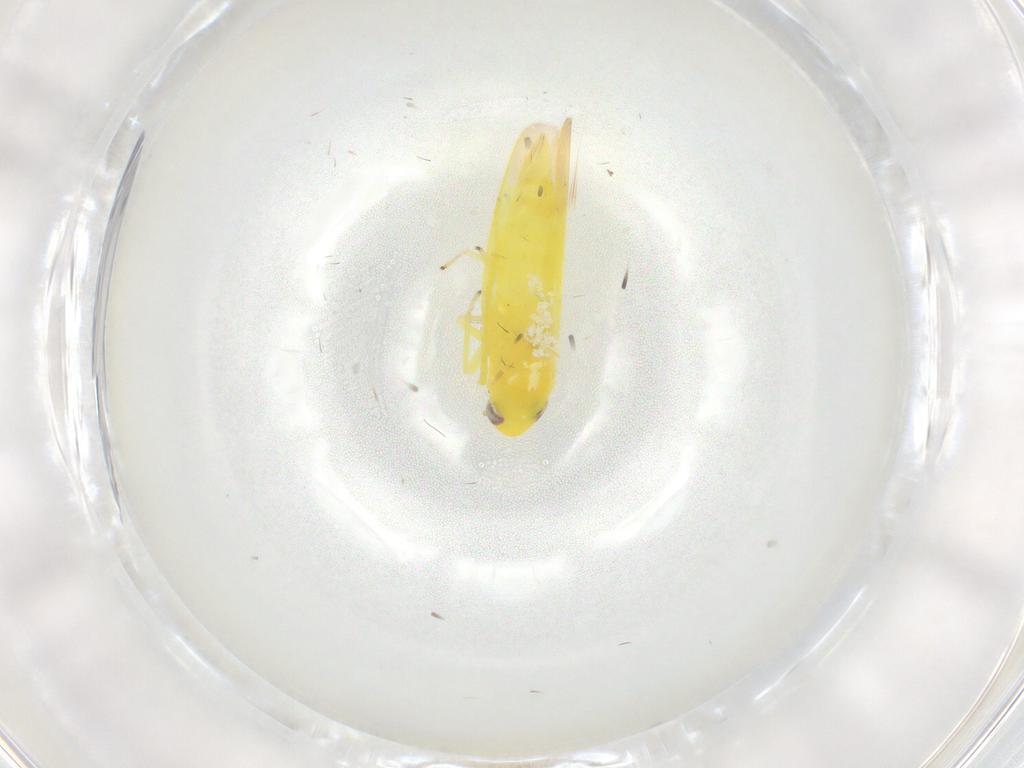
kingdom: Animalia
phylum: Arthropoda
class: Insecta
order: Hemiptera
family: Cicadellidae
